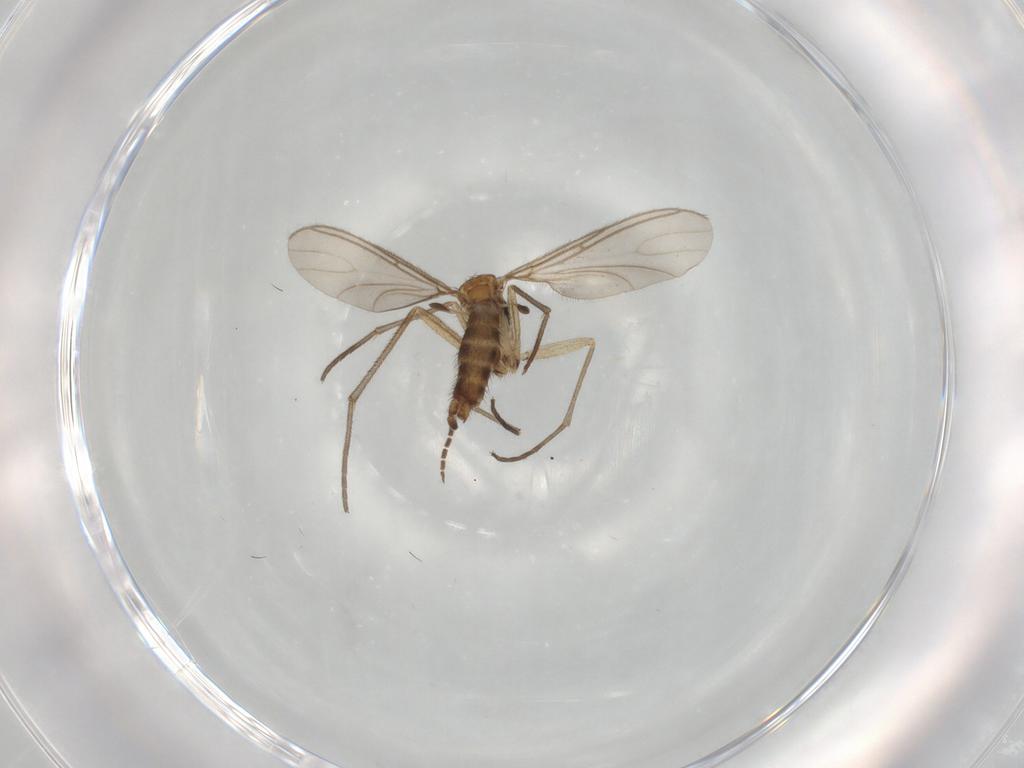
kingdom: Animalia
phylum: Arthropoda
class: Insecta
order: Diptera
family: Sciaridae
